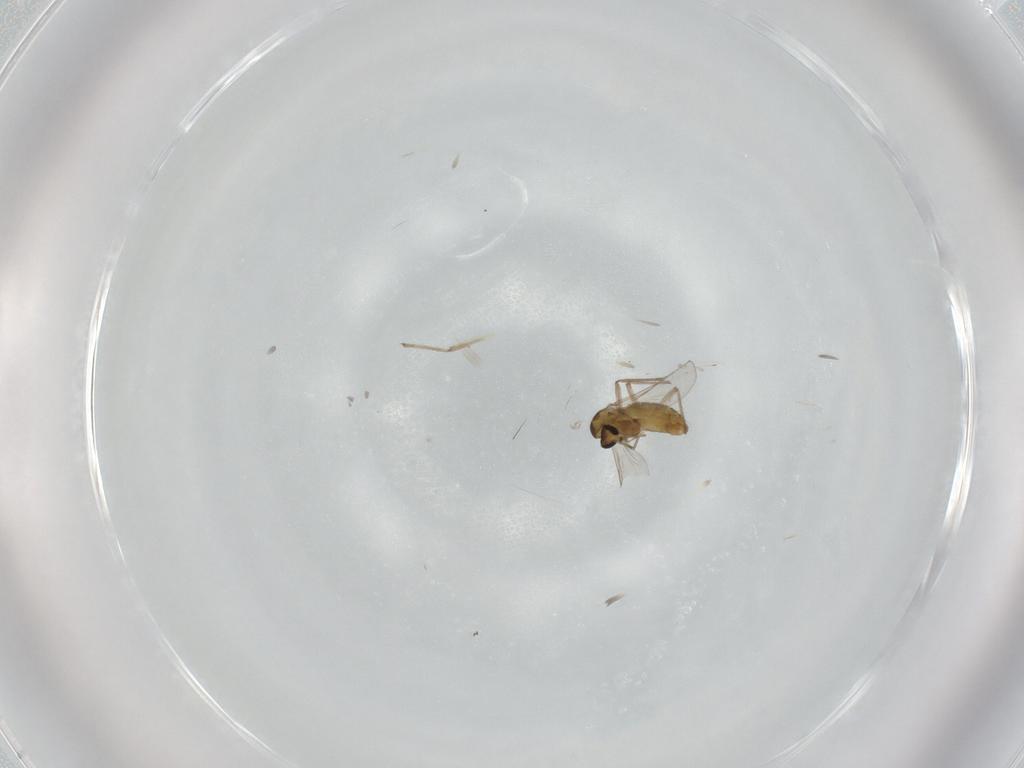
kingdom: Animalia
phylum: Arthropoda
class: Insecta
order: Diptera
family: Chironomidae
